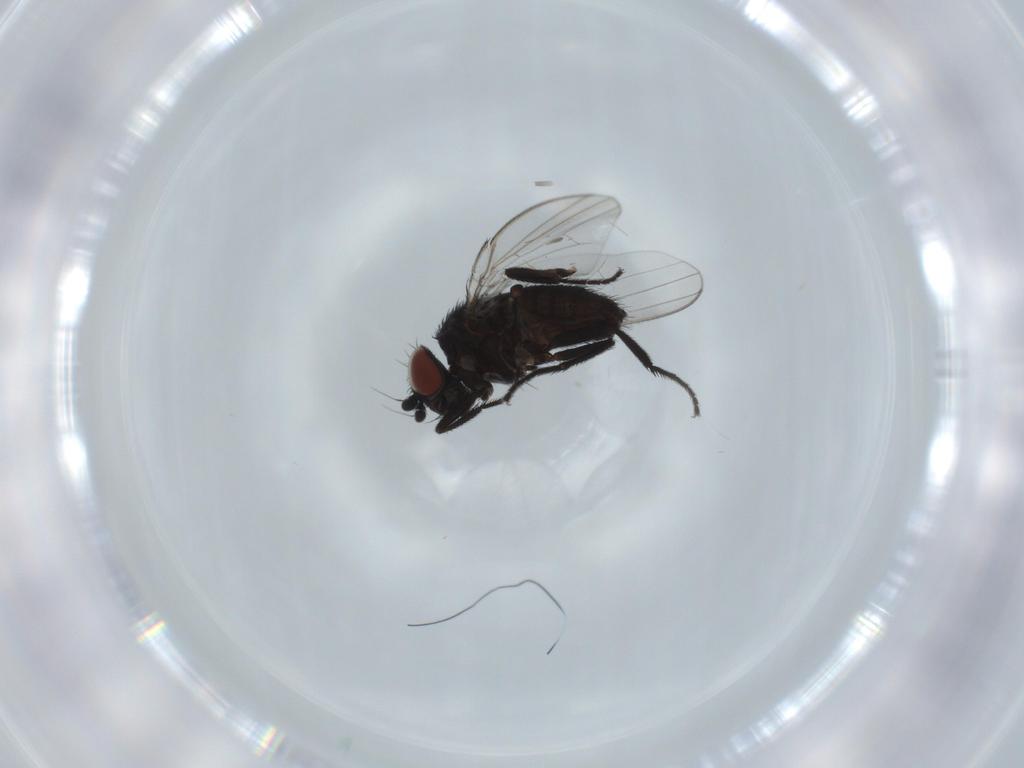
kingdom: Animalia
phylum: Arthropoda
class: Insecta
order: Diptera
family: Milichiidae
